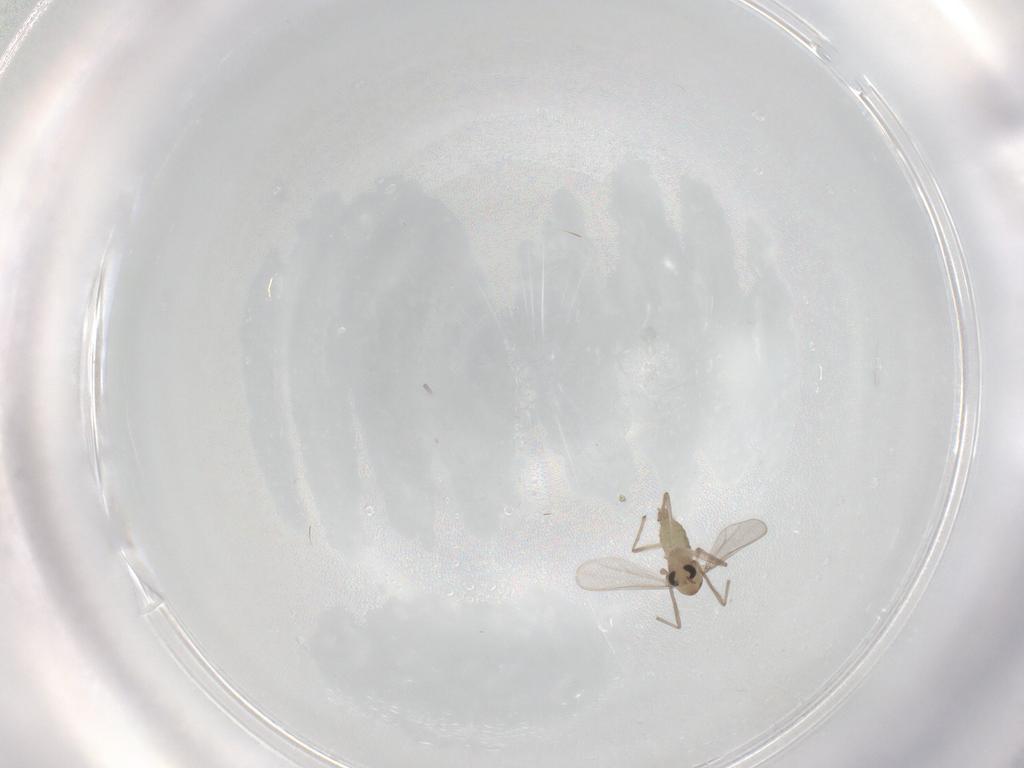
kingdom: Animalia
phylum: Arthropoda
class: Insecta
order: Diptera
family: Chironomidae
